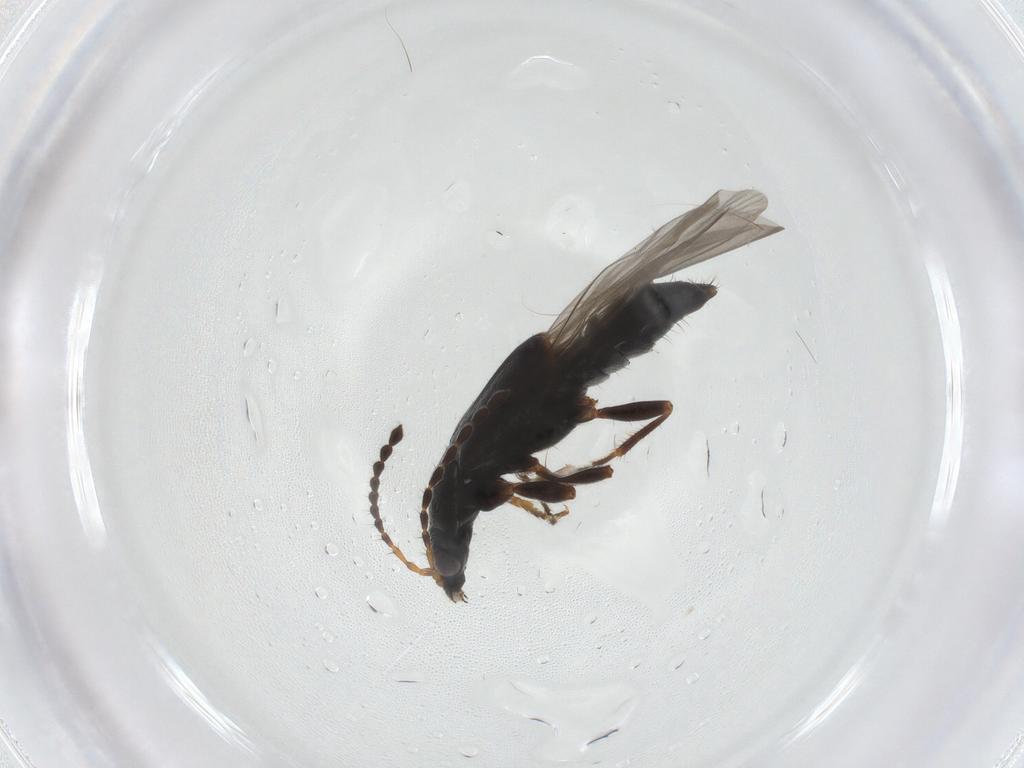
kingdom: Animalia
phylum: Arthropoda
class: Insecta
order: Coleoptera
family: Staphylinidae
